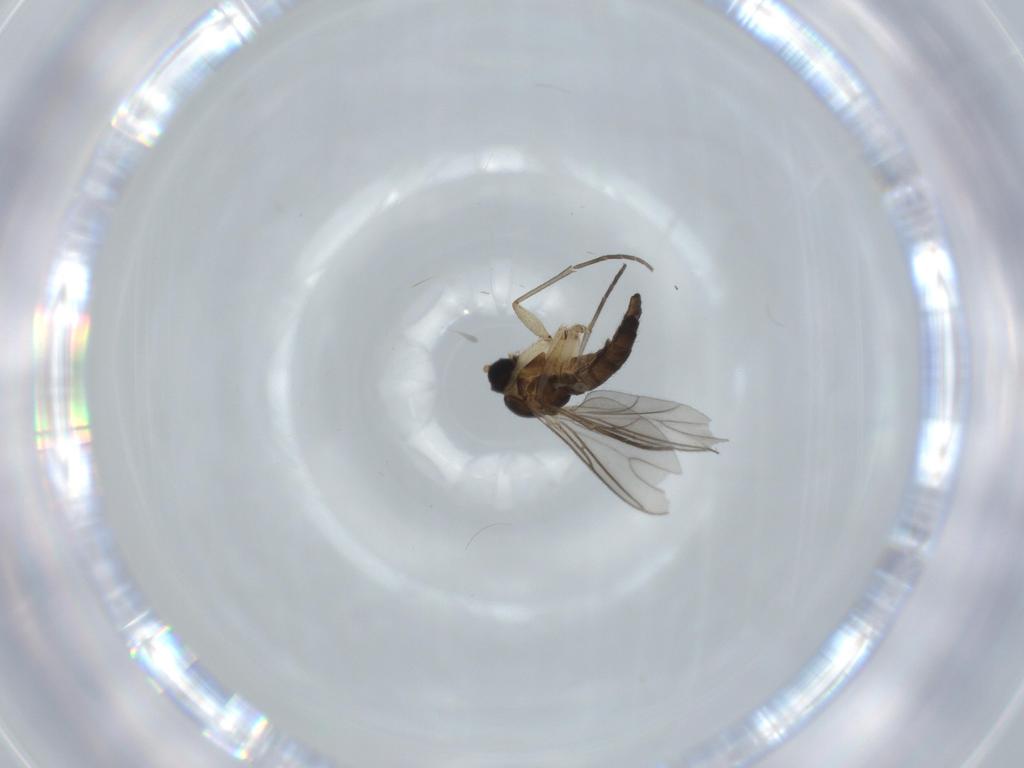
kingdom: Animalia
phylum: Arthropoda
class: Insecta
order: Diptera
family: Sciaridae
